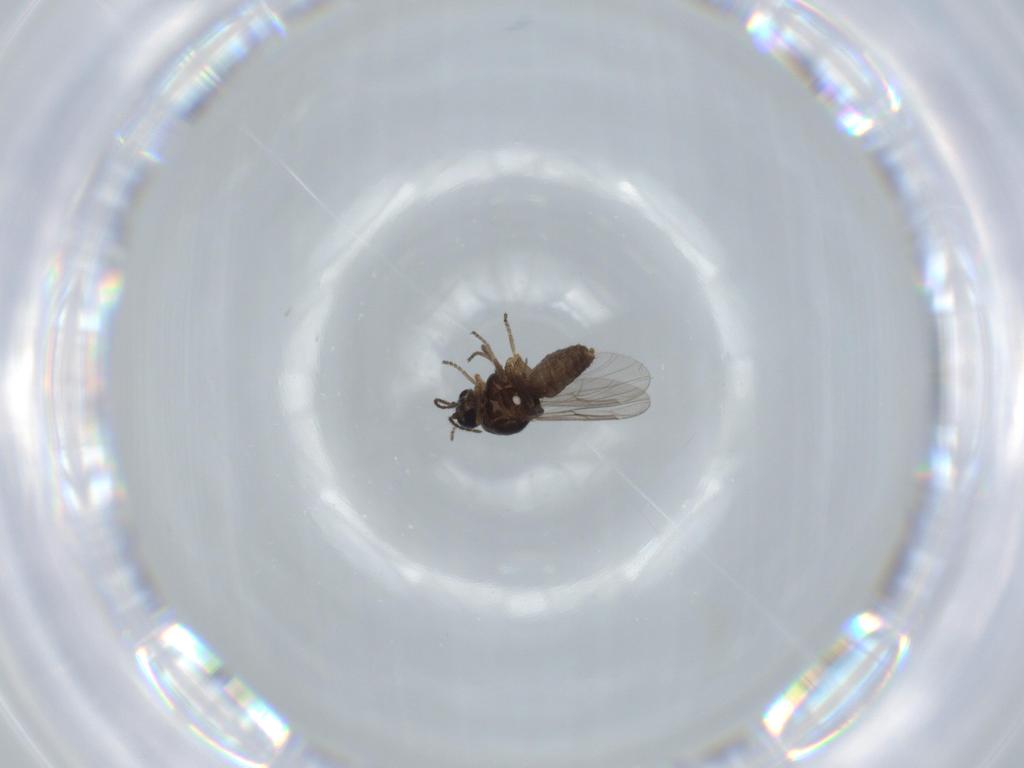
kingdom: Animalia
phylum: Arthropoda
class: Insecta
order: Diptera
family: Ceratopogonidae
